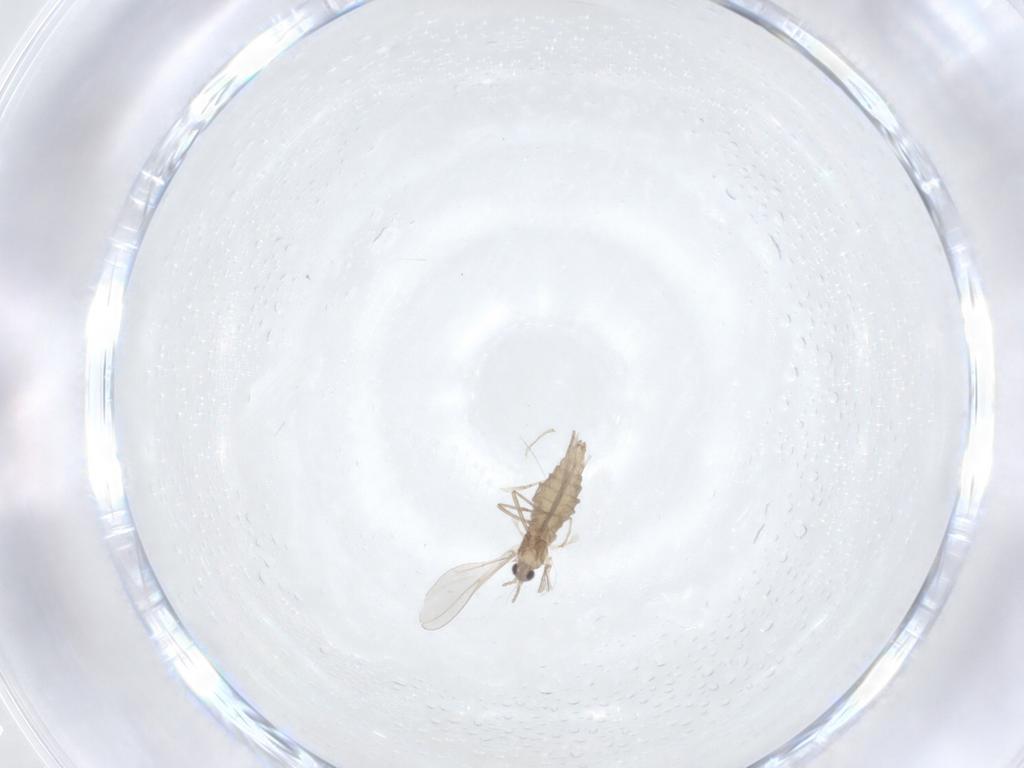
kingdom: Animalia
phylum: Arthropoda
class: Insecta
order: Diptera
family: Cecidomyiidae
